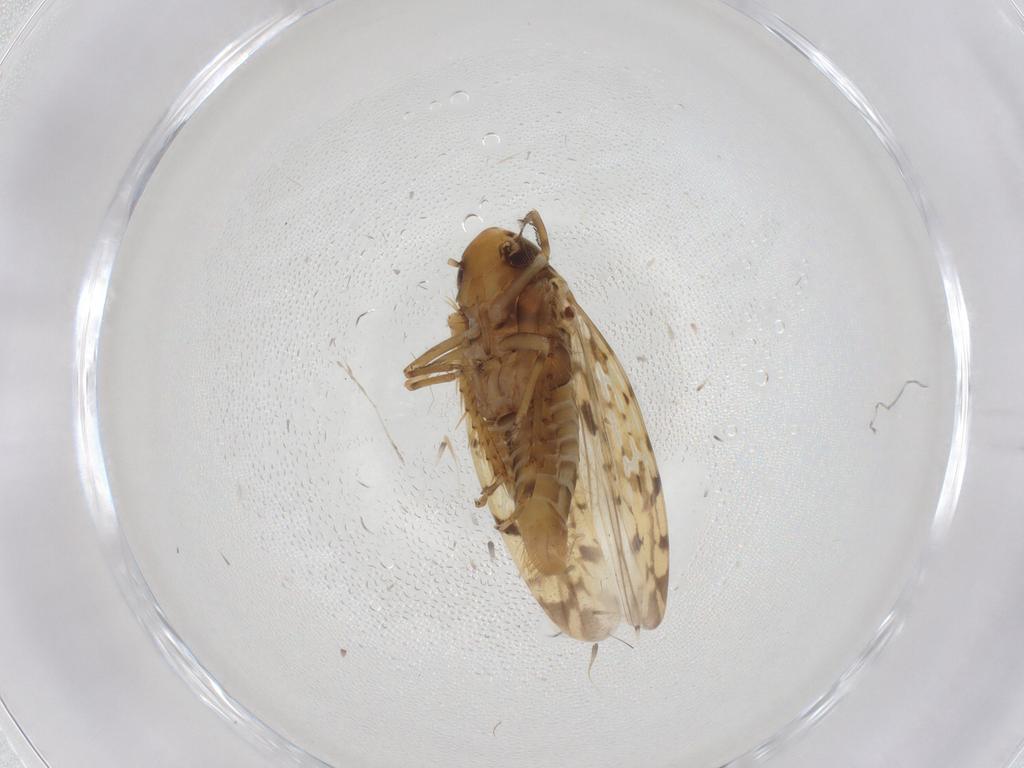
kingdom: Animalia
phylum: Arthropoda
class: Insecta
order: Hemiptera
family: Cicadellidae
